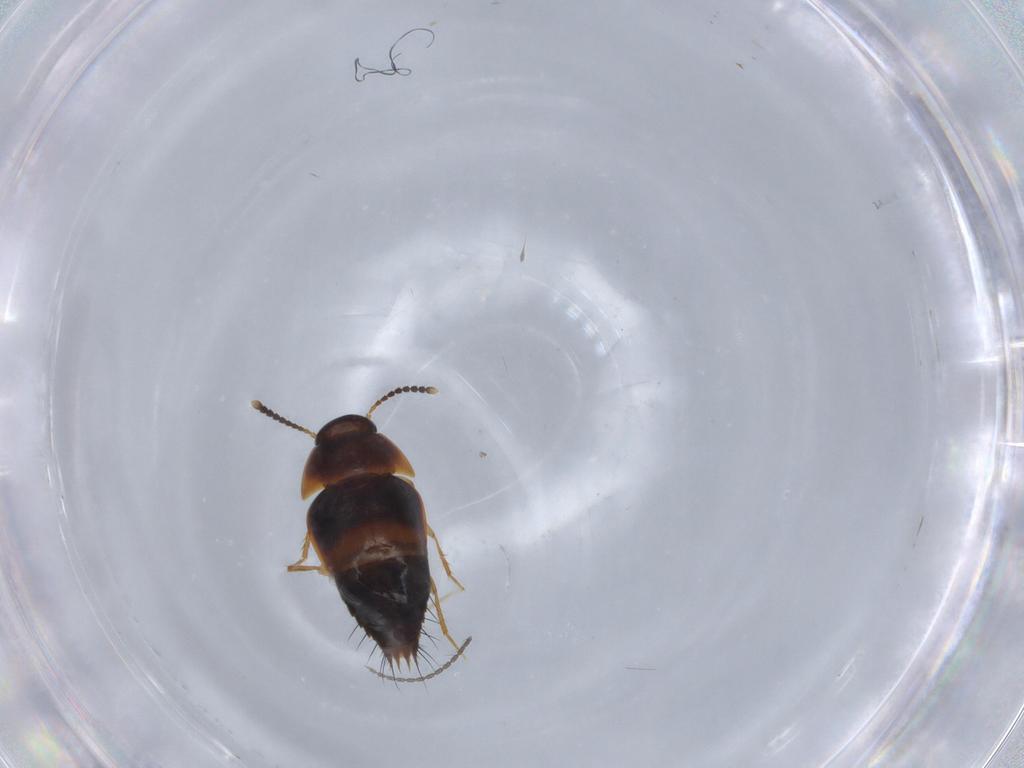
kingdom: Animalia
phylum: Arthropoda
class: Insecta
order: Coleoptera
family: Staphylinidae
